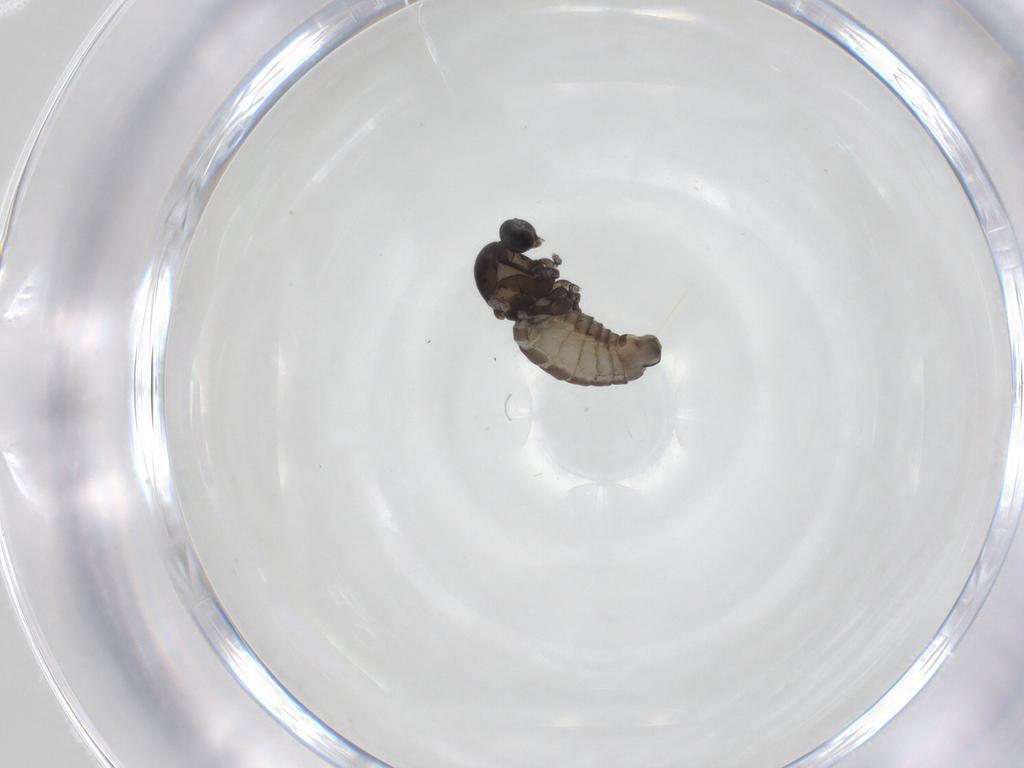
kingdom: Animalia
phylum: Arthropoda
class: Insecta
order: Diptera
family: Cecidomyiidae
